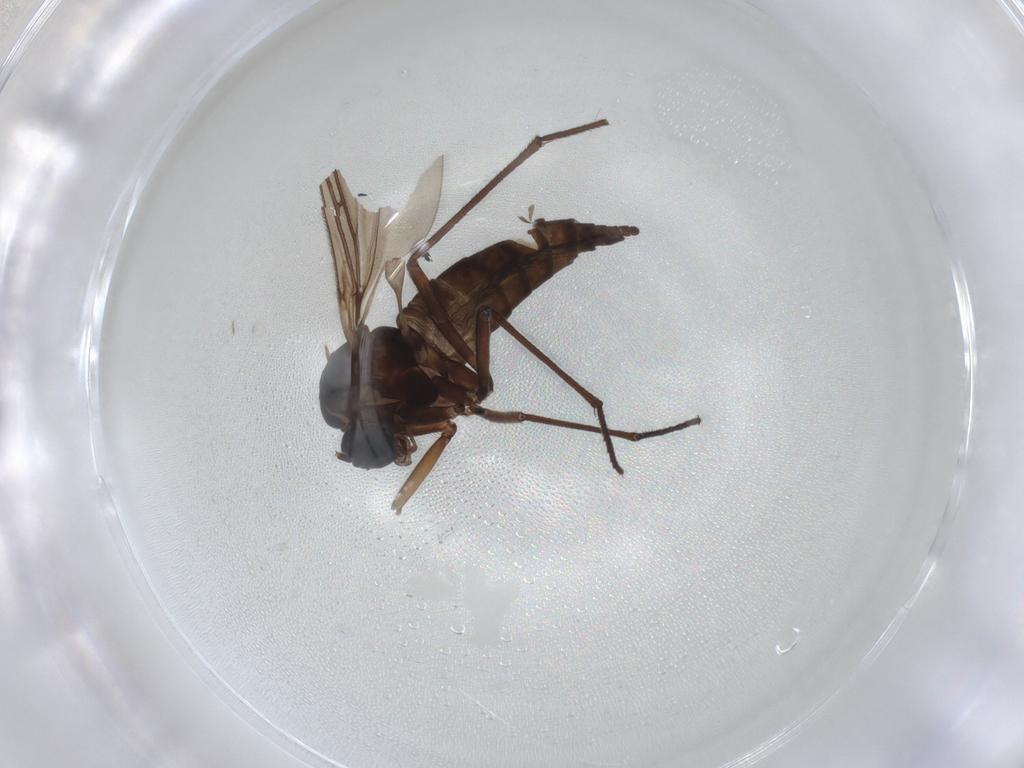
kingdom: Animalia
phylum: Arthropoda
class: Insecta
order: Diptera
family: Sciaridae
